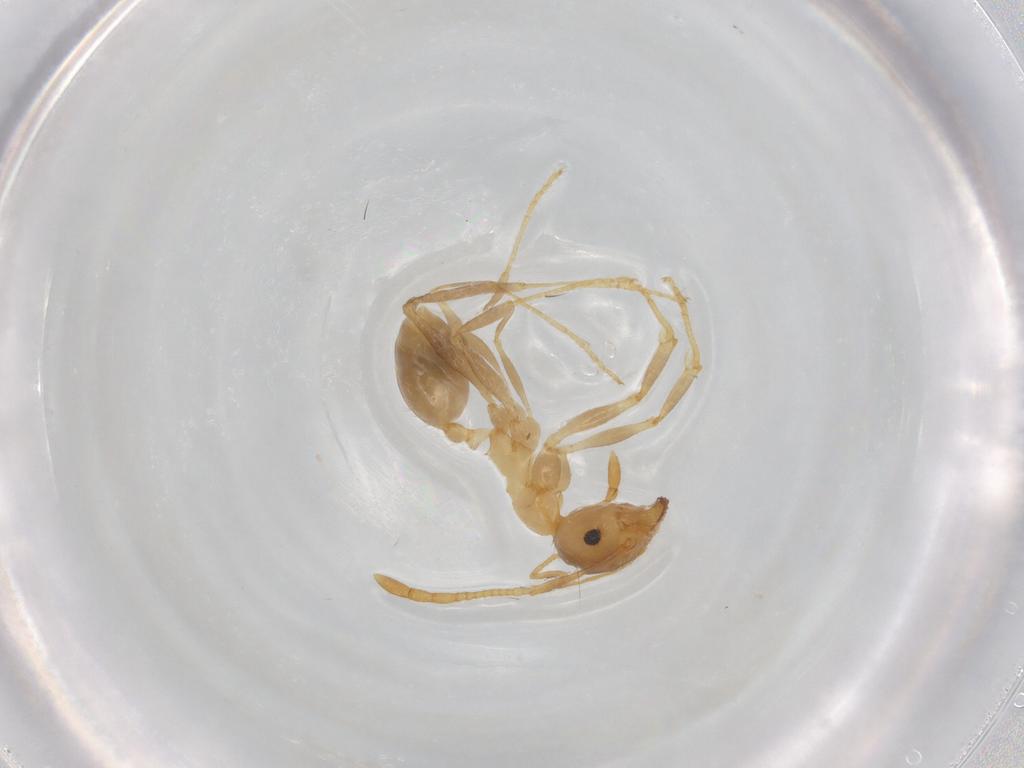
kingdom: Animalia
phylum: Arthropoda
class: Insecta
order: Hymenoptera
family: Formicidae
